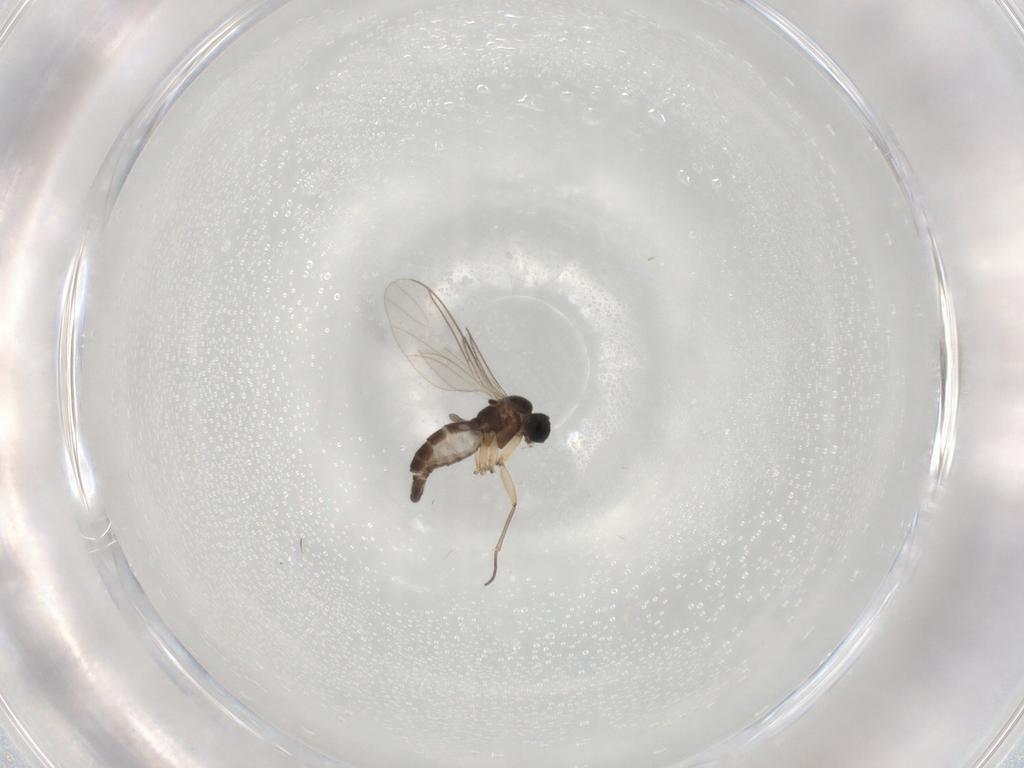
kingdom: Animalia
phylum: Arthropoda
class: Insecta
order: Diptera
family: Sciaridae
